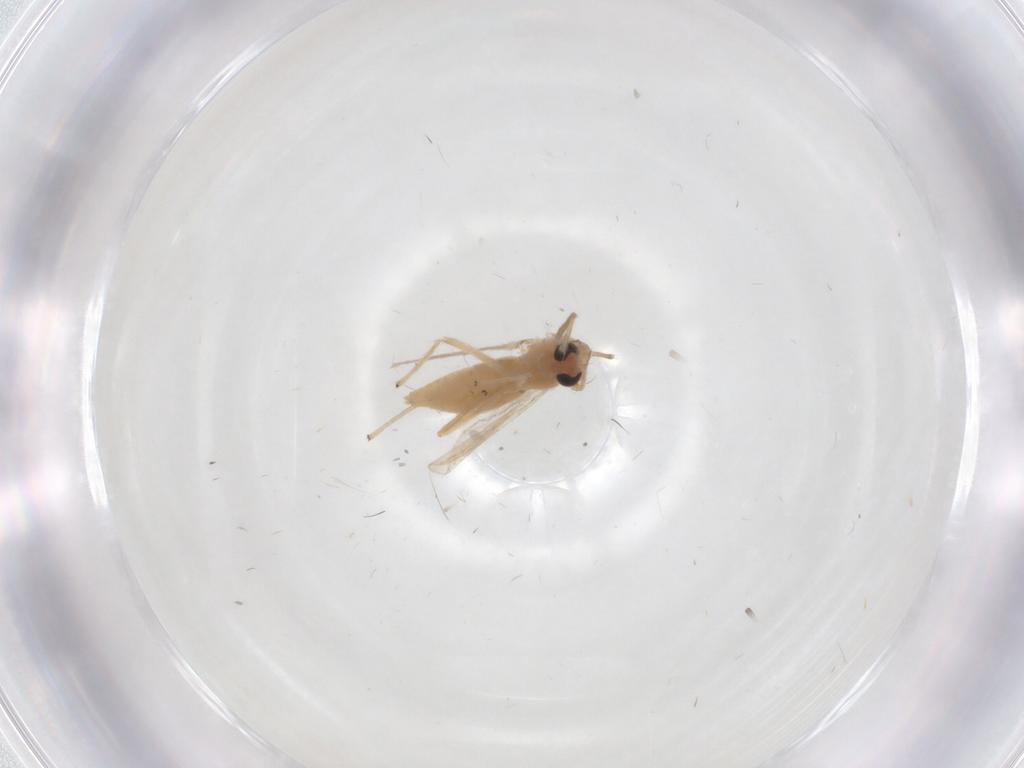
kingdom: Animalia
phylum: Arthropoda
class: Insecta
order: Diptera
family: Chironomidae
